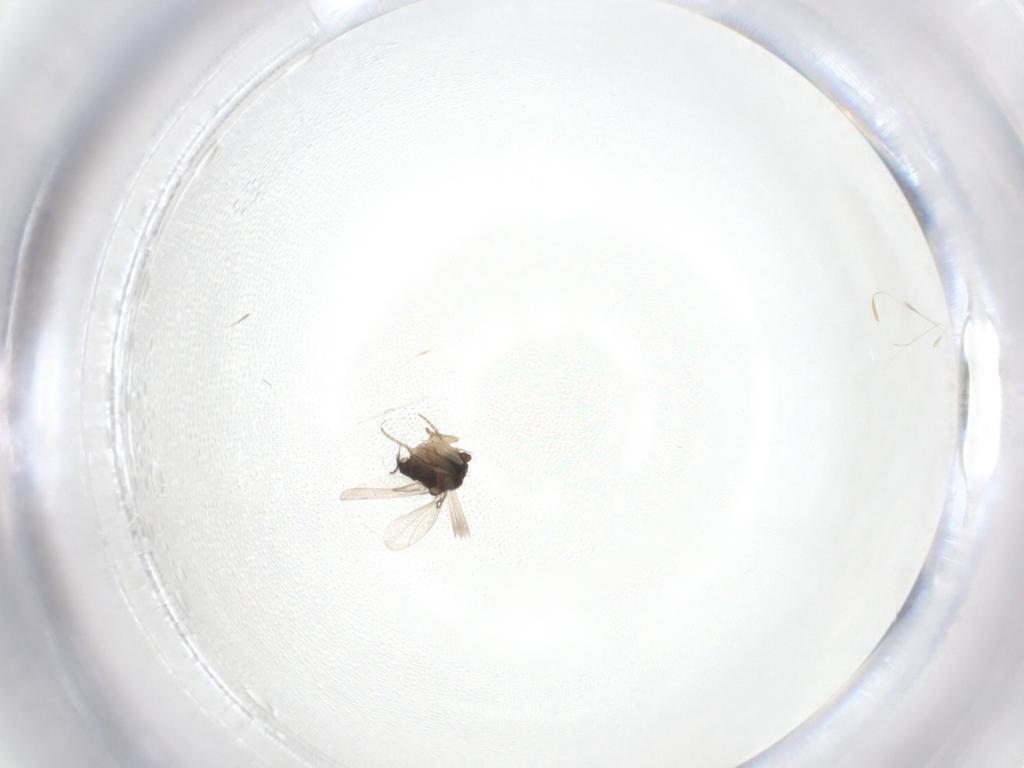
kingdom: Animalia
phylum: Arthropoda
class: Insecta
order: Diptera
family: Phoridae
